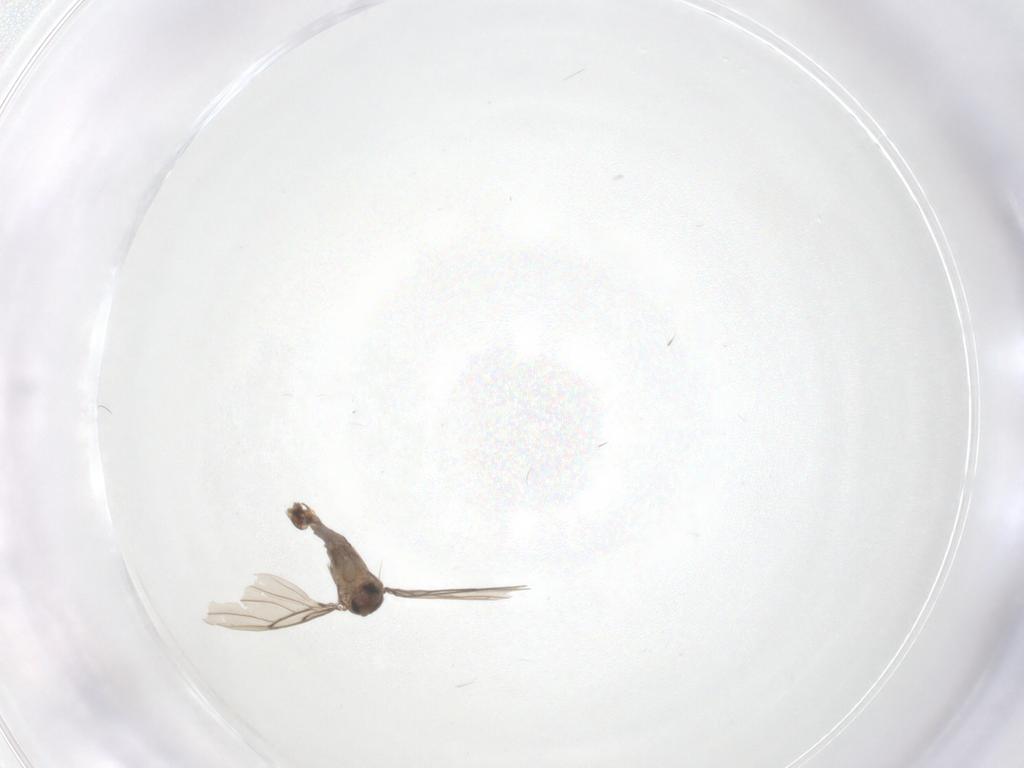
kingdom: Animalia
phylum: Arthropoda
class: Insecta
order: Diptera
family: Phoridae
